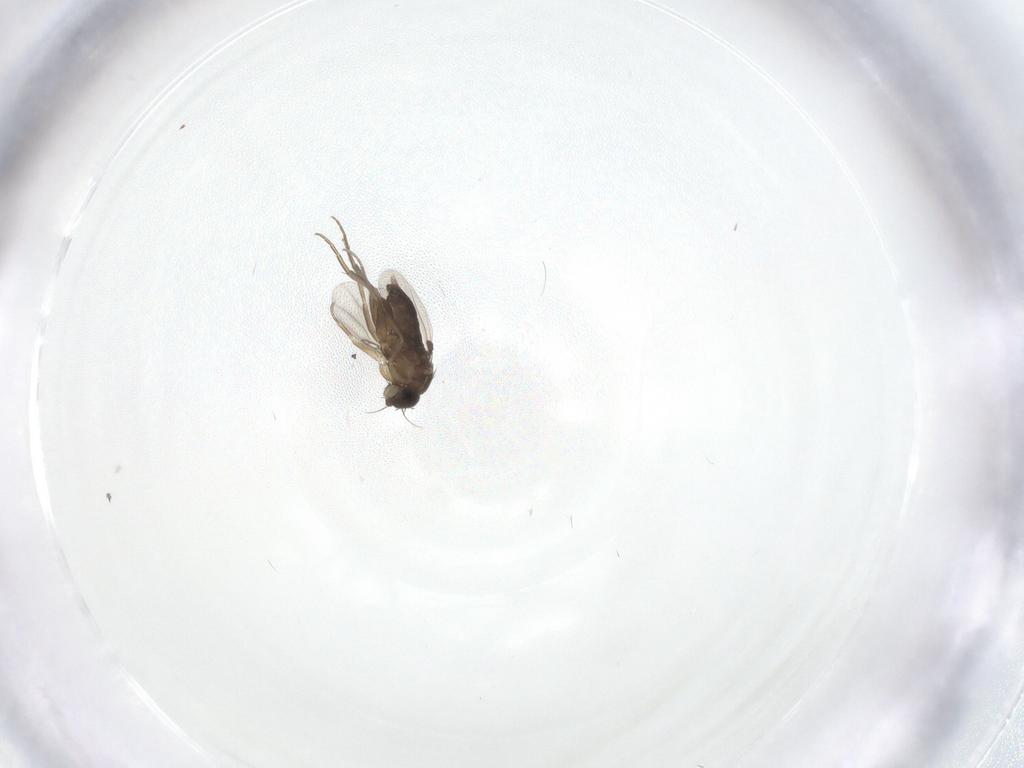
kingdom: Animalia
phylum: Arthropoda
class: Insecta
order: Diptera
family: Phoridae
